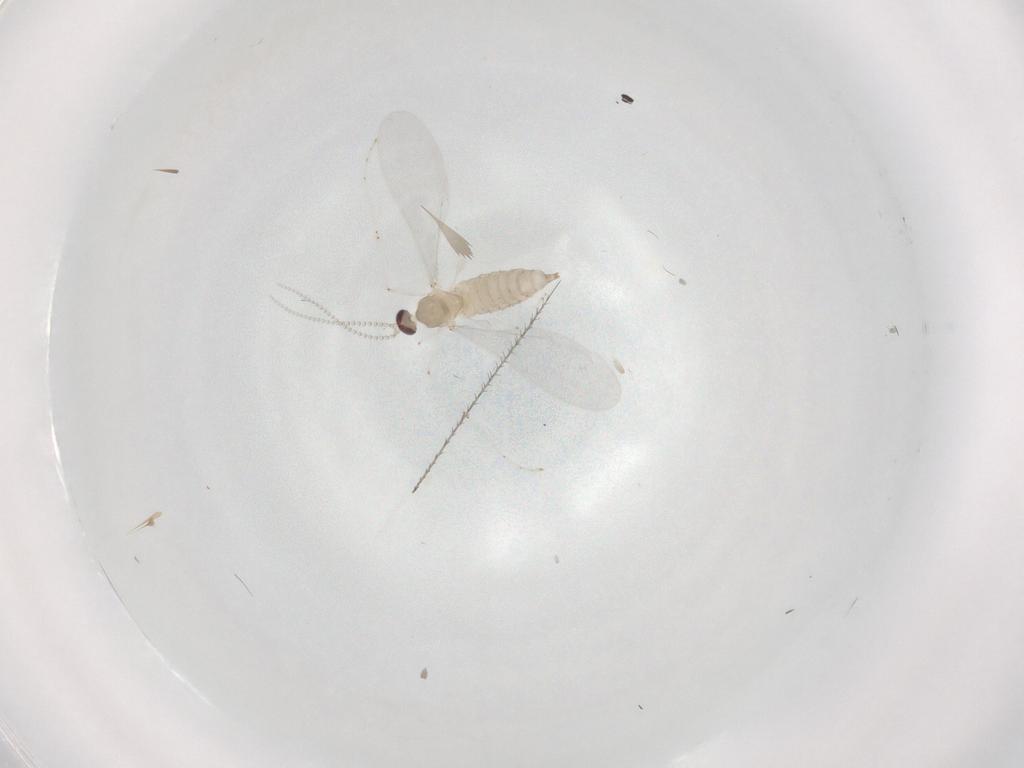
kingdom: Animalia
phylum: Arthropoda
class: Insecta
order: Diptera
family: Cecidomyiidae
